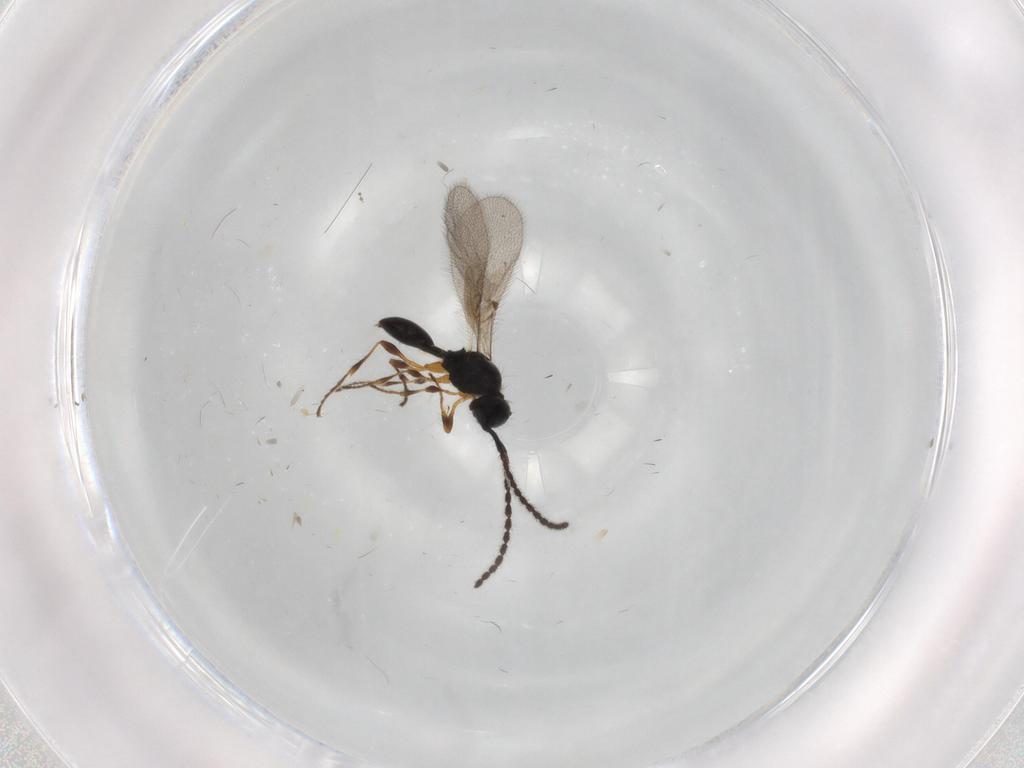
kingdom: Animalia
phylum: Arthropoda
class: Insecta
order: Hymenoptera
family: Diapriidae
